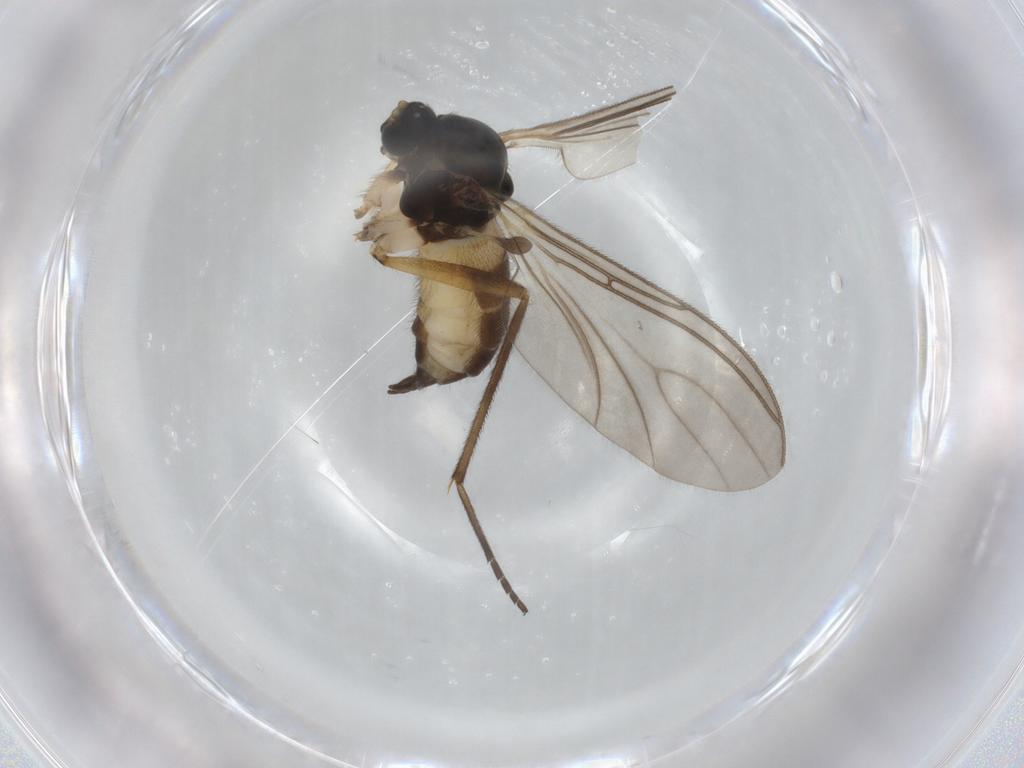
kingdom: Animalia
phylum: Arthropoda
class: Insecta
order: Diptera
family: Sciaridae
